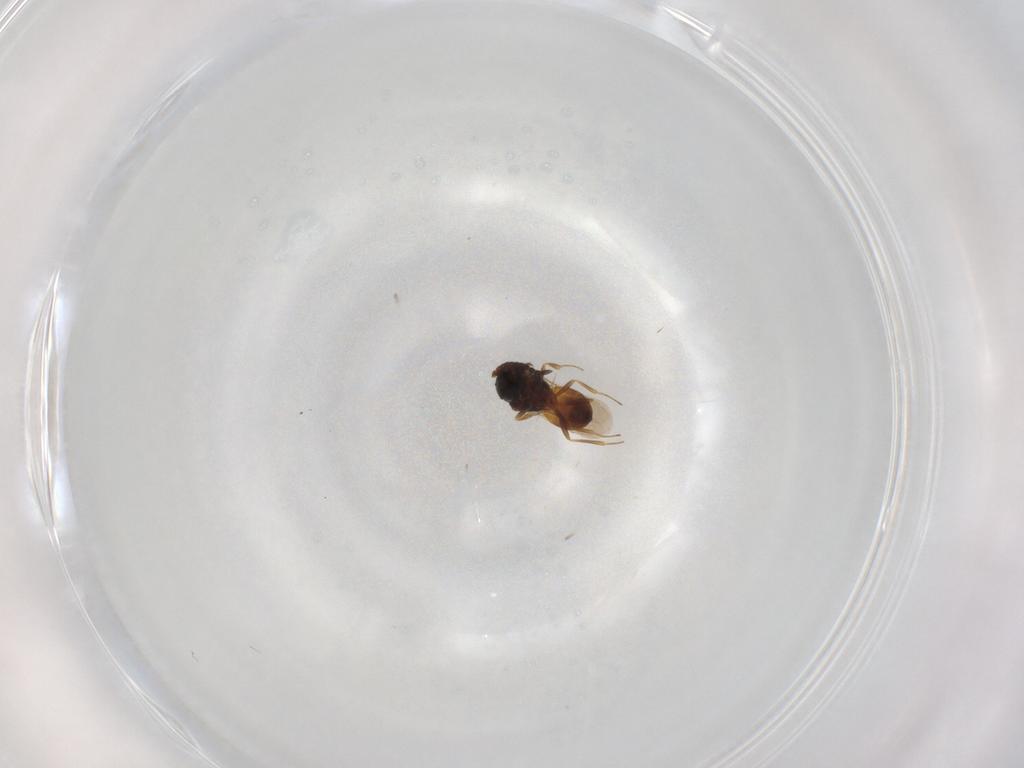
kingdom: Animalia
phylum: Arthropoda
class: Insecta
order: Hymenoptera
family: Scelionidae
